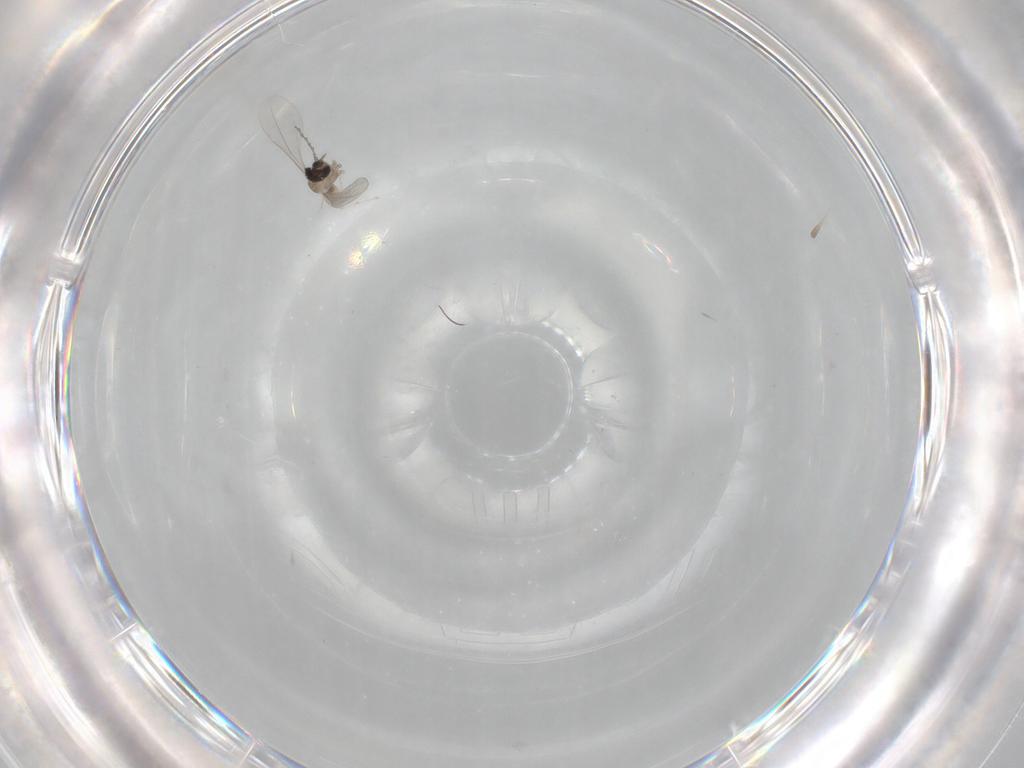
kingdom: Animalia
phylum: Arthropoda
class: Insecta
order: Diptera
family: Cecidomyiidae
